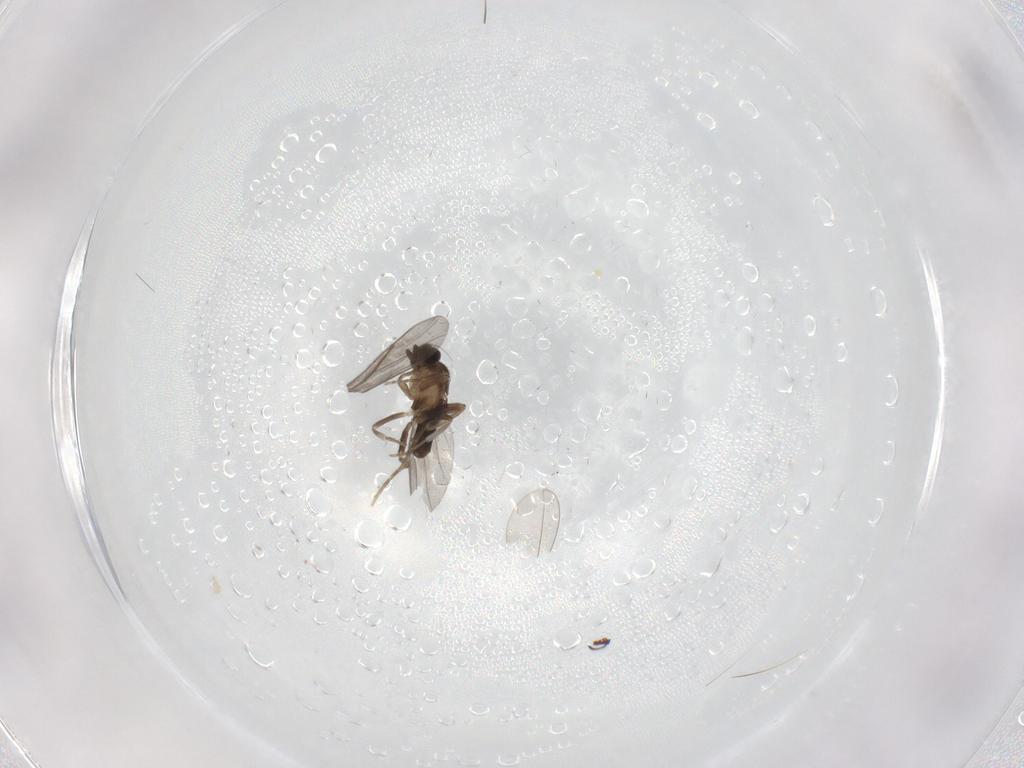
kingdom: Animalia
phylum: Arthropoda
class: Insecta
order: Diptera
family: Cecidomyiidae
